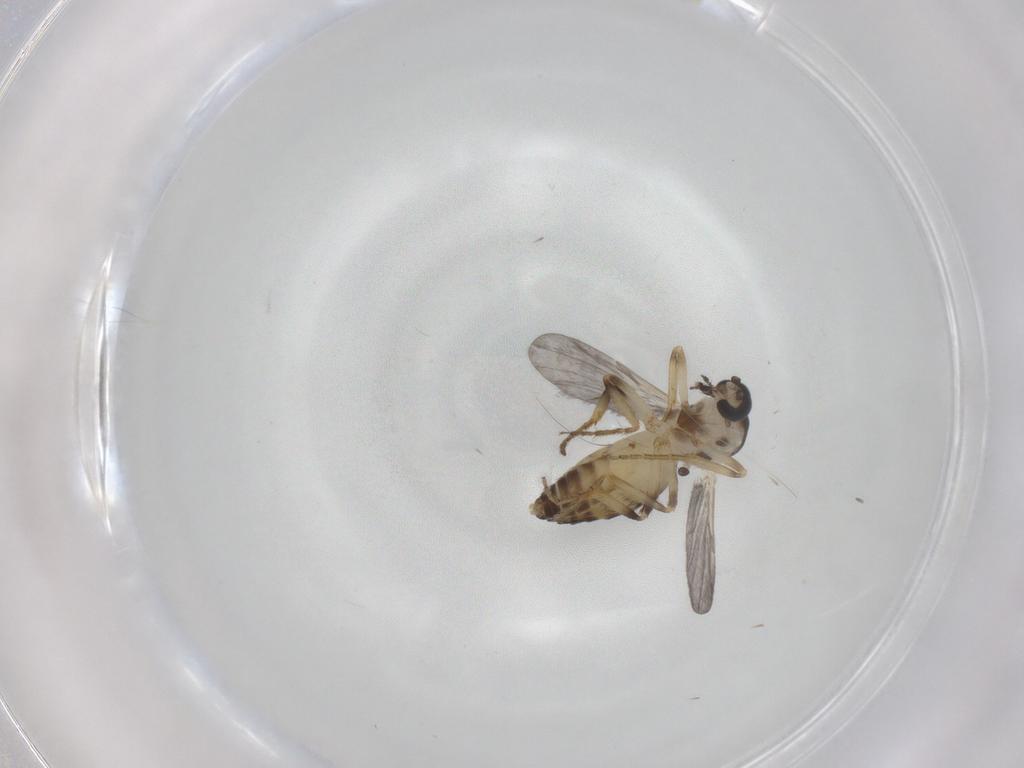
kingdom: Animalia
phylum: Arthropoda
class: Insecta
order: Diptera
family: Ceratopogonidae
